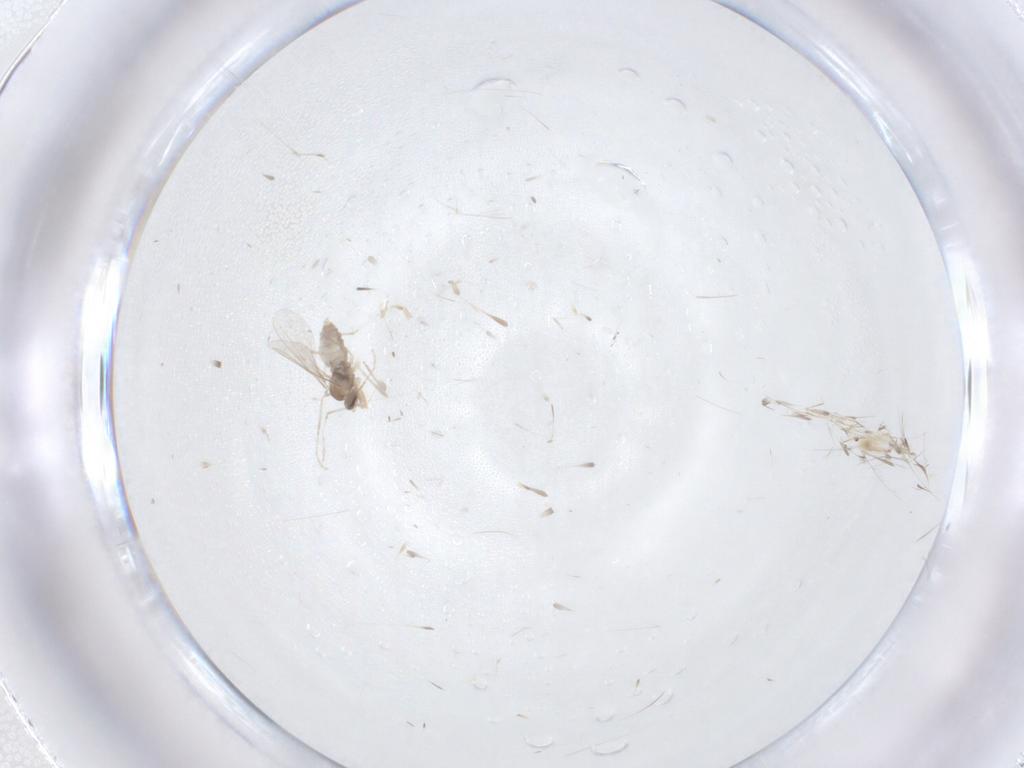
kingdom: Animalia
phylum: Arthropoda
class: Insecta
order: Diptera
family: Cecidomyiidae
